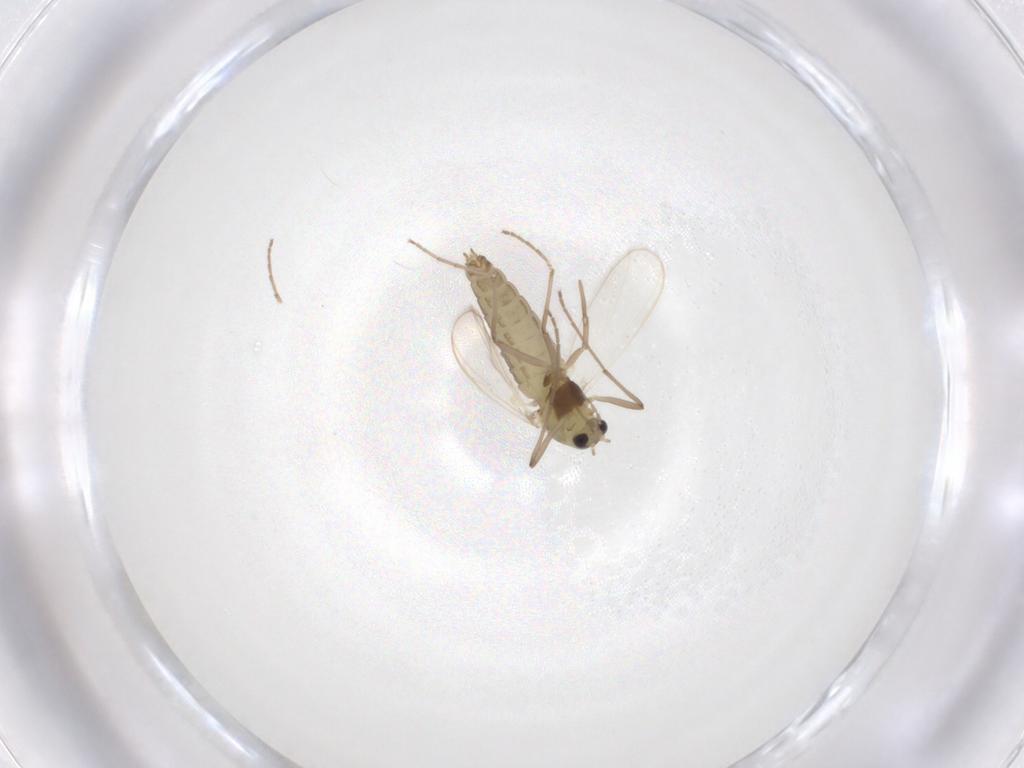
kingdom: Animalia
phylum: Arthropoda
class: Insecta
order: Diptera
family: Chironomidae
